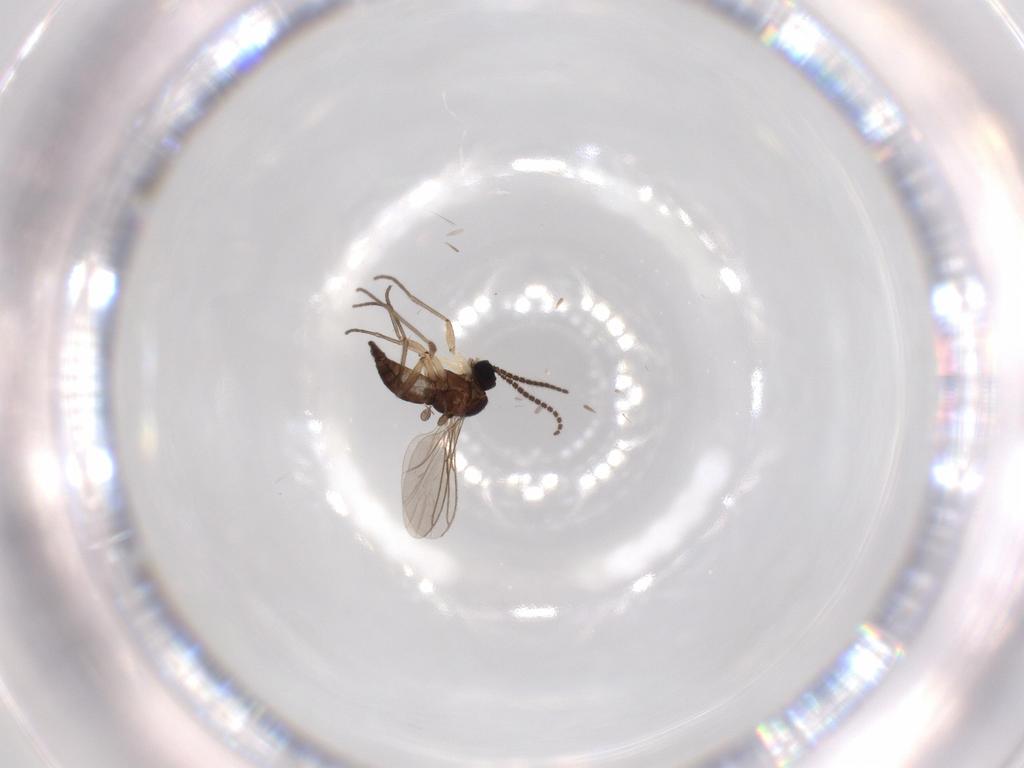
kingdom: Animalia
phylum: Arthropoda
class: Insecta
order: Diptera
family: Sciaridae
